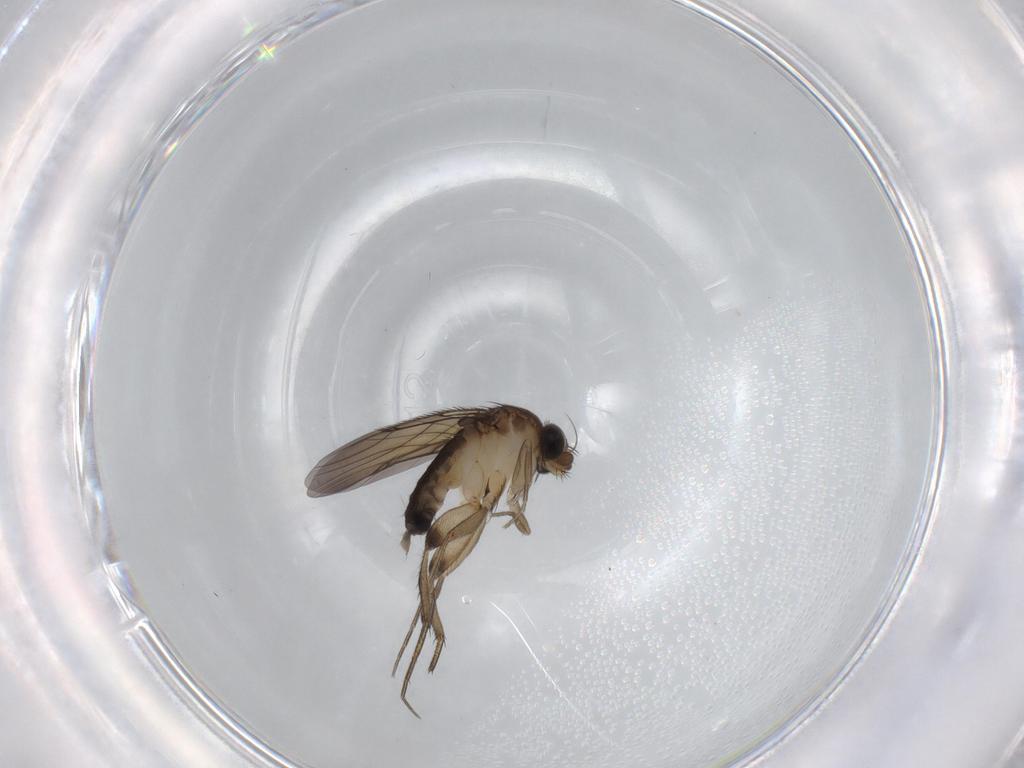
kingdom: Animalia
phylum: Arthropoda
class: Insecta
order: Diptera
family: Phoridae
